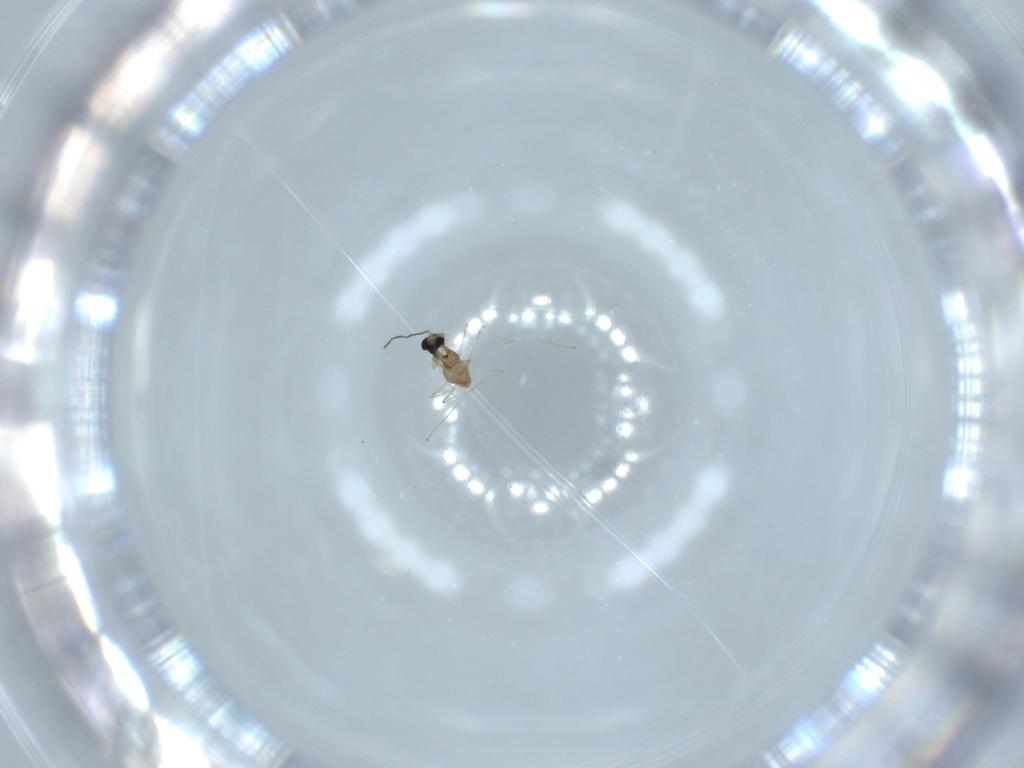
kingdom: Animalia
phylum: Arthropoda
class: Insecta
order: Diptera
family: Cecidomyiidae
